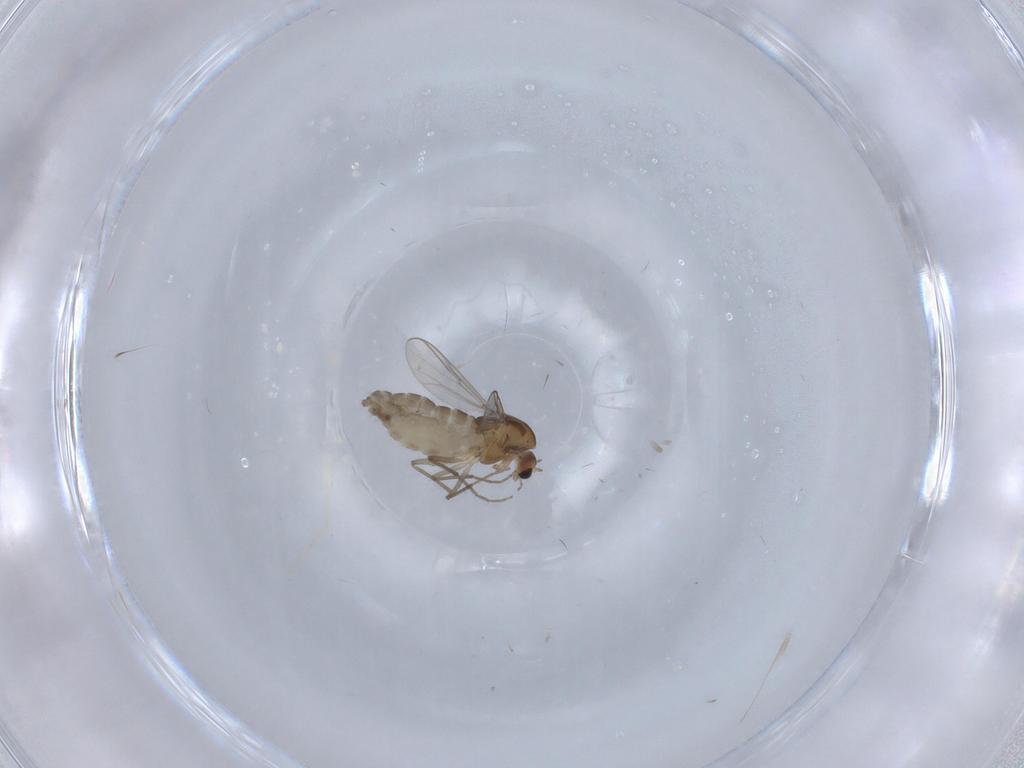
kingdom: Animalia
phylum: Arthropoda
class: Insecta
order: Diptera
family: Chironomidae
